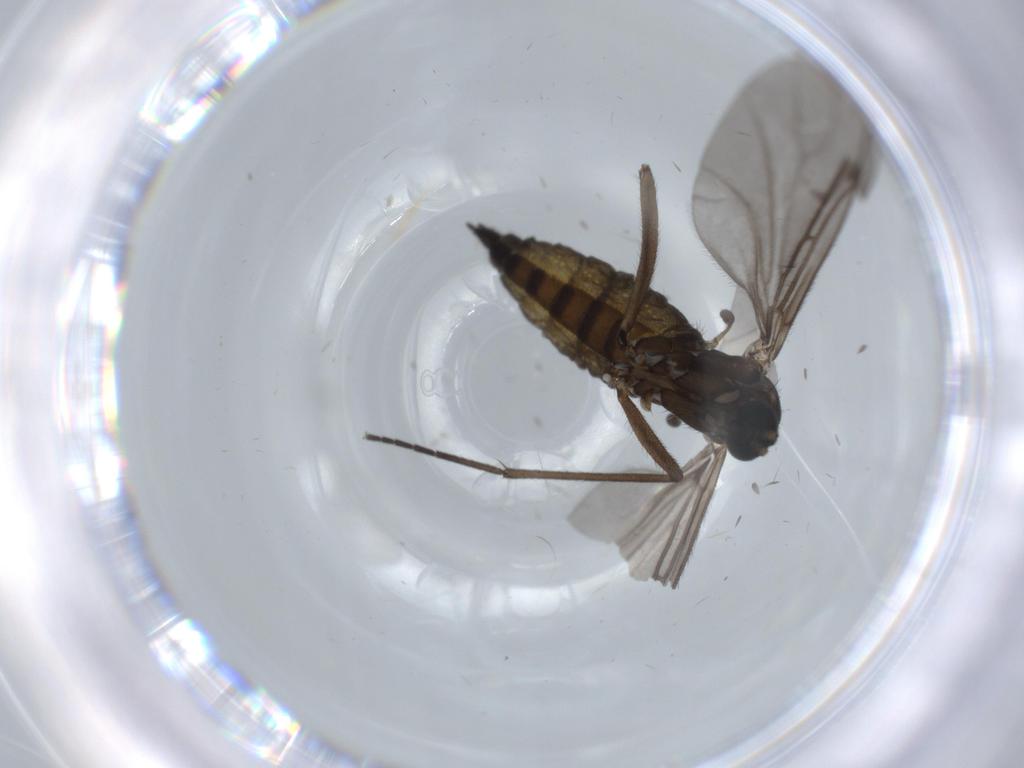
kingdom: Animalia
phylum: Arthropoda
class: Insecta
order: Diptera
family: Sciaridae
